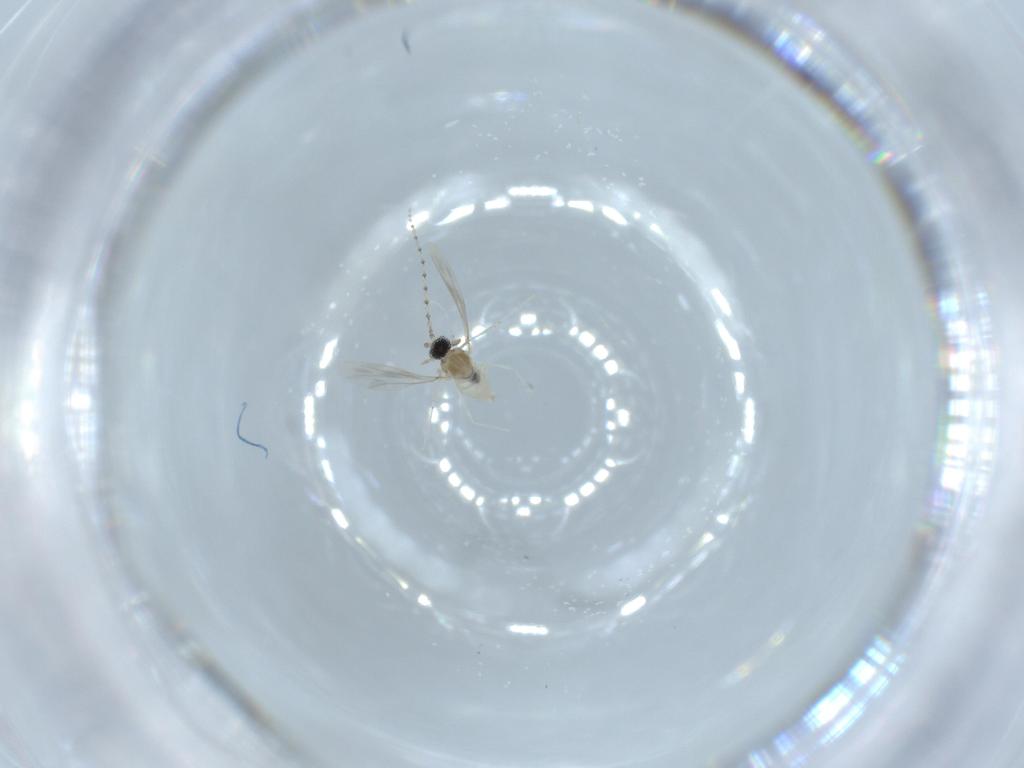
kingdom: Animalia
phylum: Arthropoda
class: Insecta
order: Diptera
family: Cecidomyiidae
